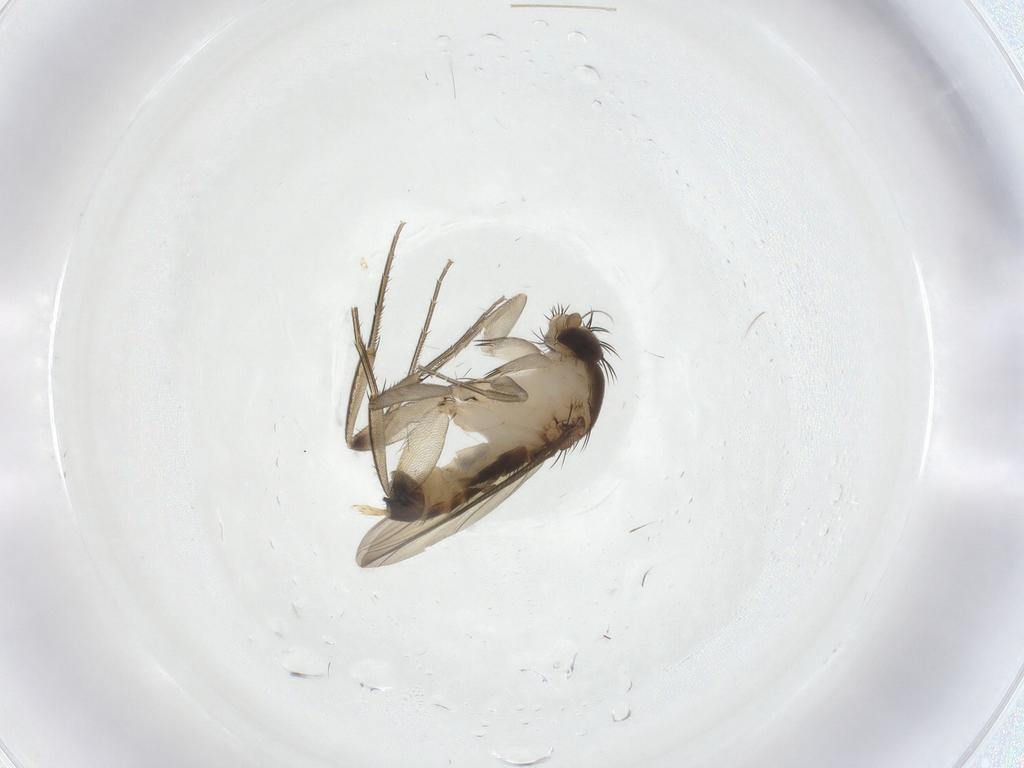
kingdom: Animalia
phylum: Arthropoda
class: Insecta
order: Diptera
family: Phoridae
